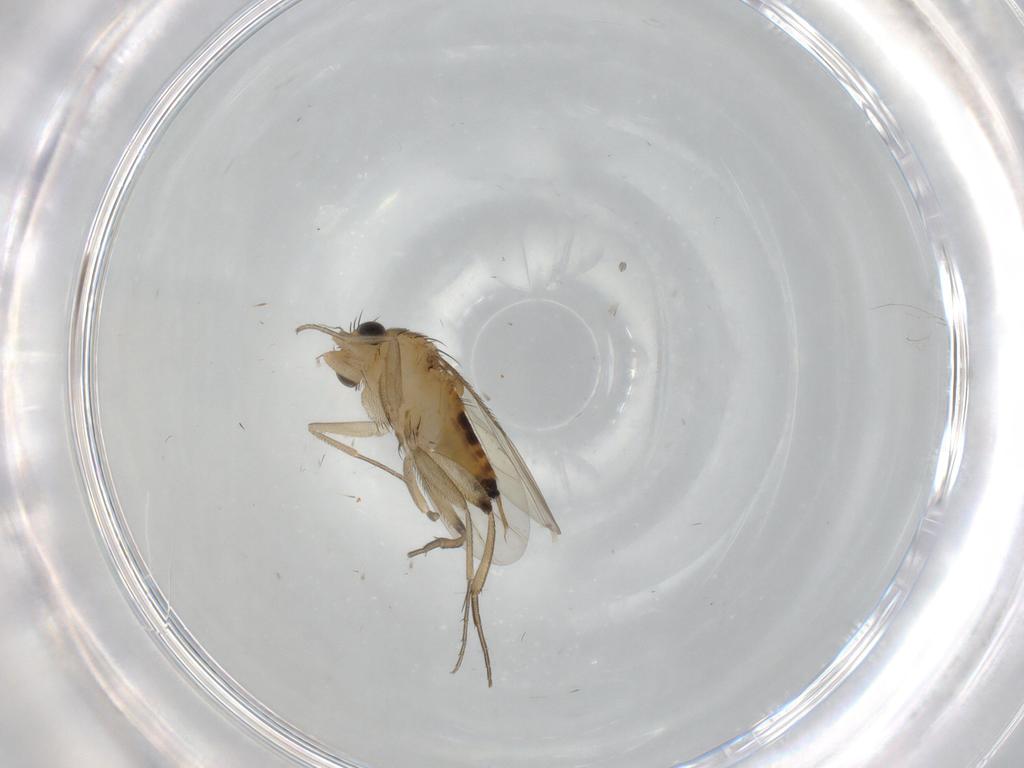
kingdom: Animalia
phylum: Arthropoda
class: Insecta
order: Diptera
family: Phoridae
